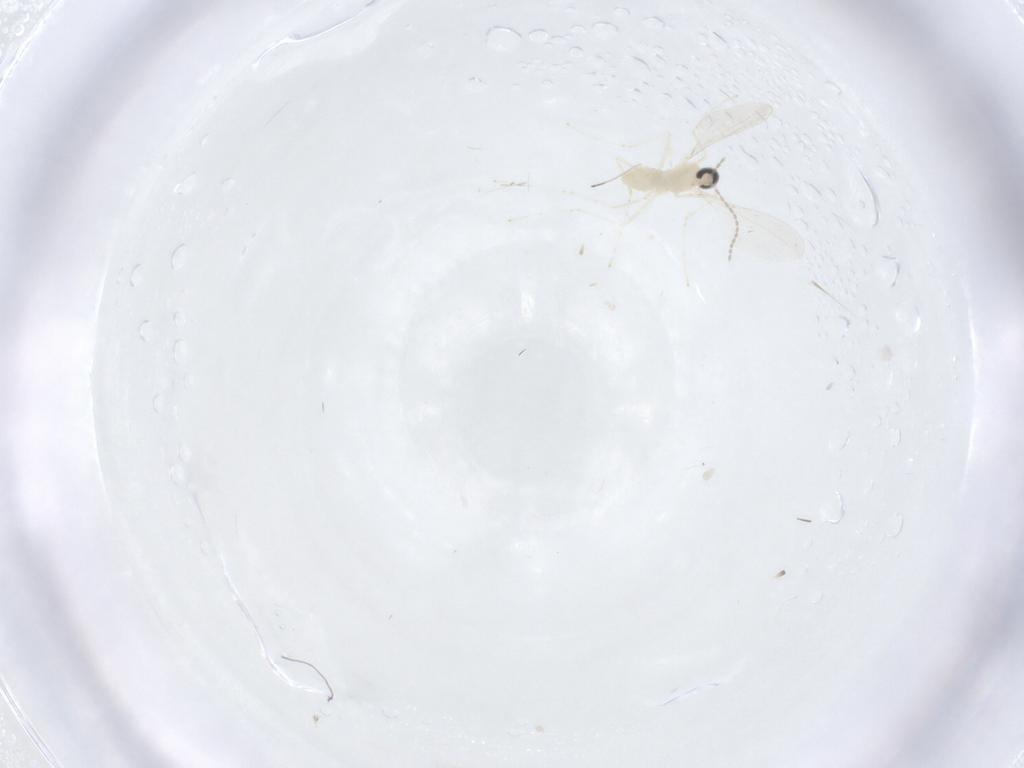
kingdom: Animalia
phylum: Arthropoda
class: Insecta
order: Diptera
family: Cecidomyiidae
